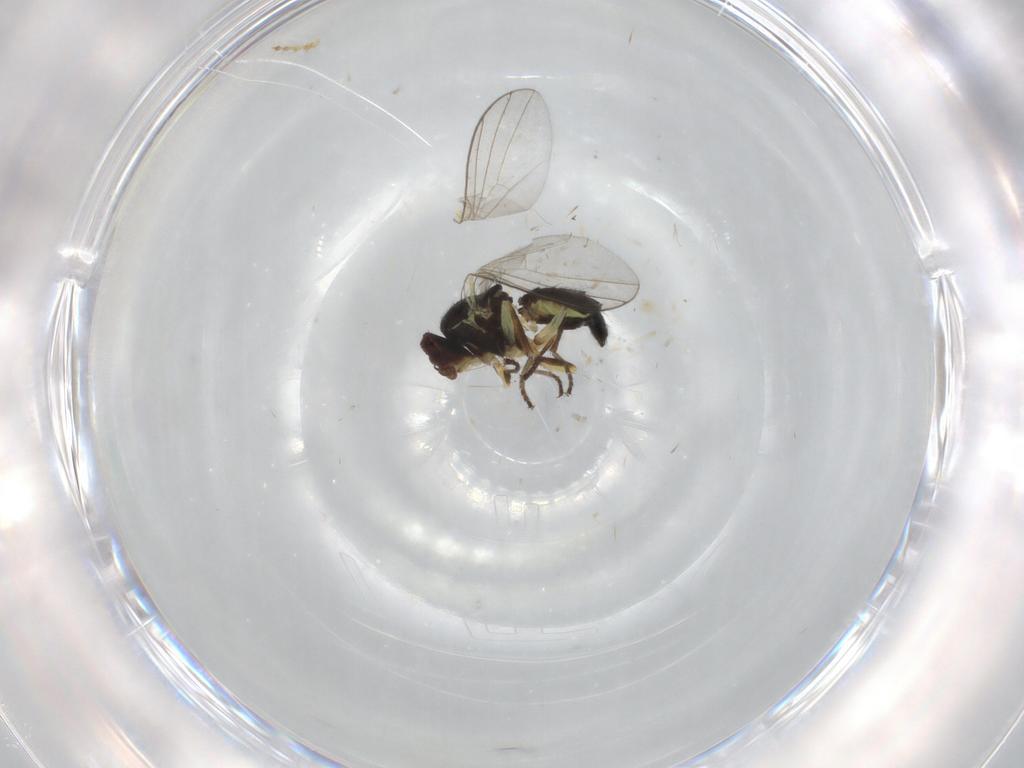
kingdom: Animalia
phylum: Arthropoda
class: Insecta
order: Diptera
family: Agromyzidae
